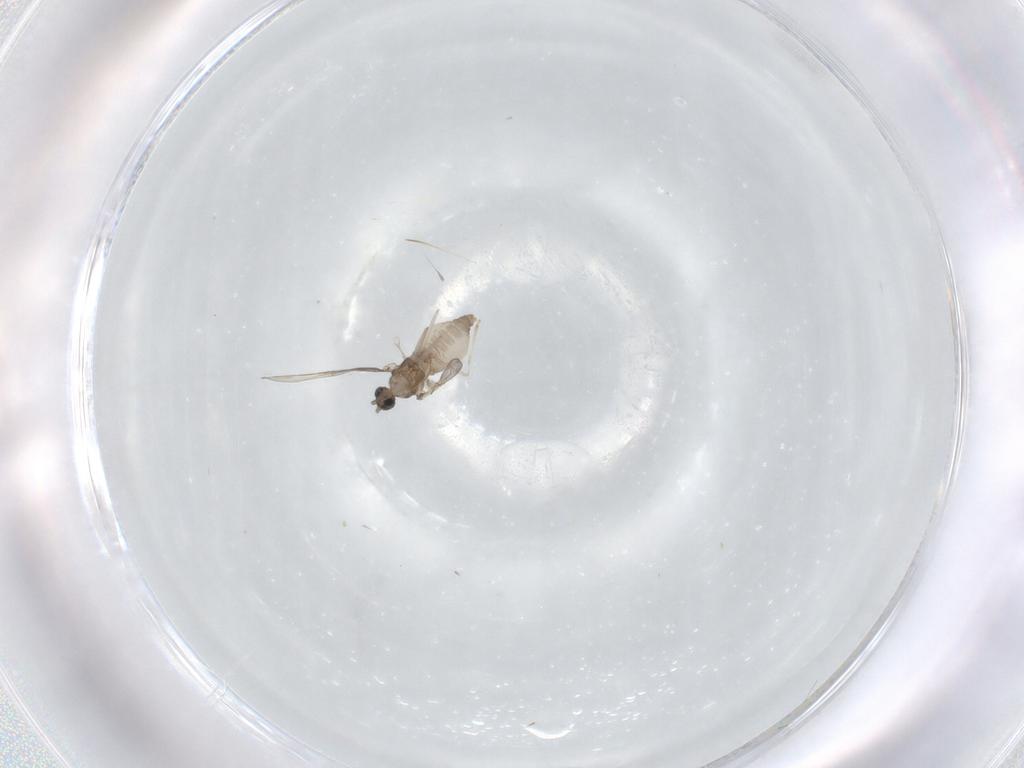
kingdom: Animalia
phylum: Arthropoda
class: Insecta
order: Diptera
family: Cecidomyiidae
